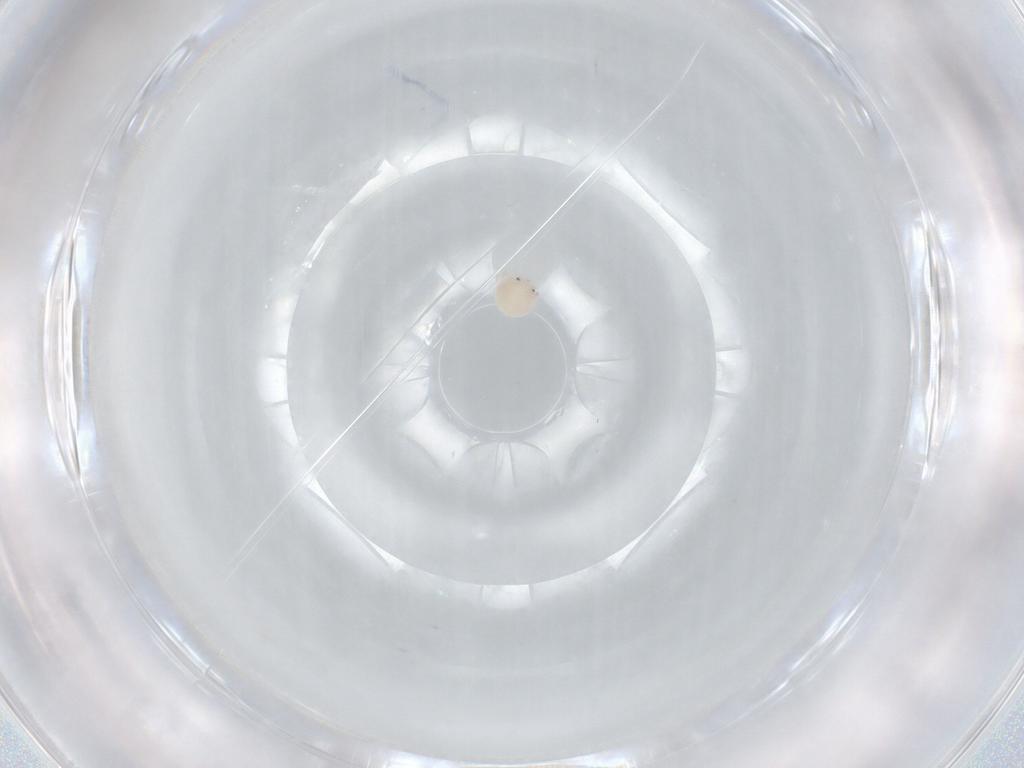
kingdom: Animalia
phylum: Arthropoda
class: Arachnida
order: Trombidiformes
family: Arrenuridae
